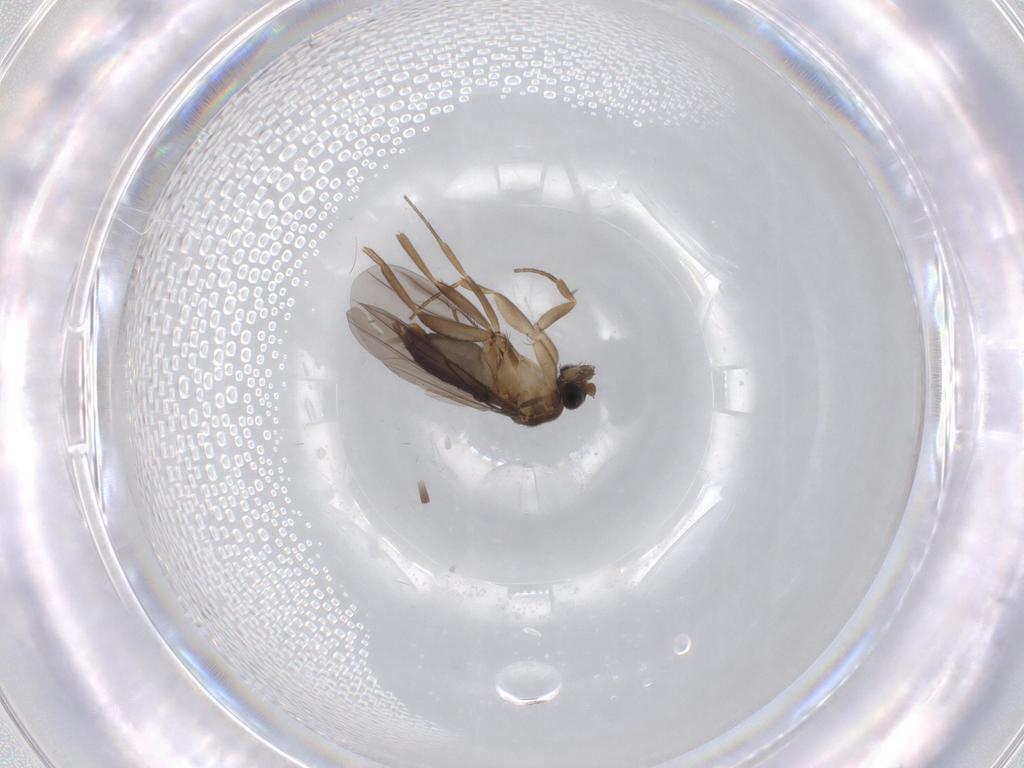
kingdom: Animalia
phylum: Arthropoda
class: Insecta
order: Diptera
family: Phoridae
